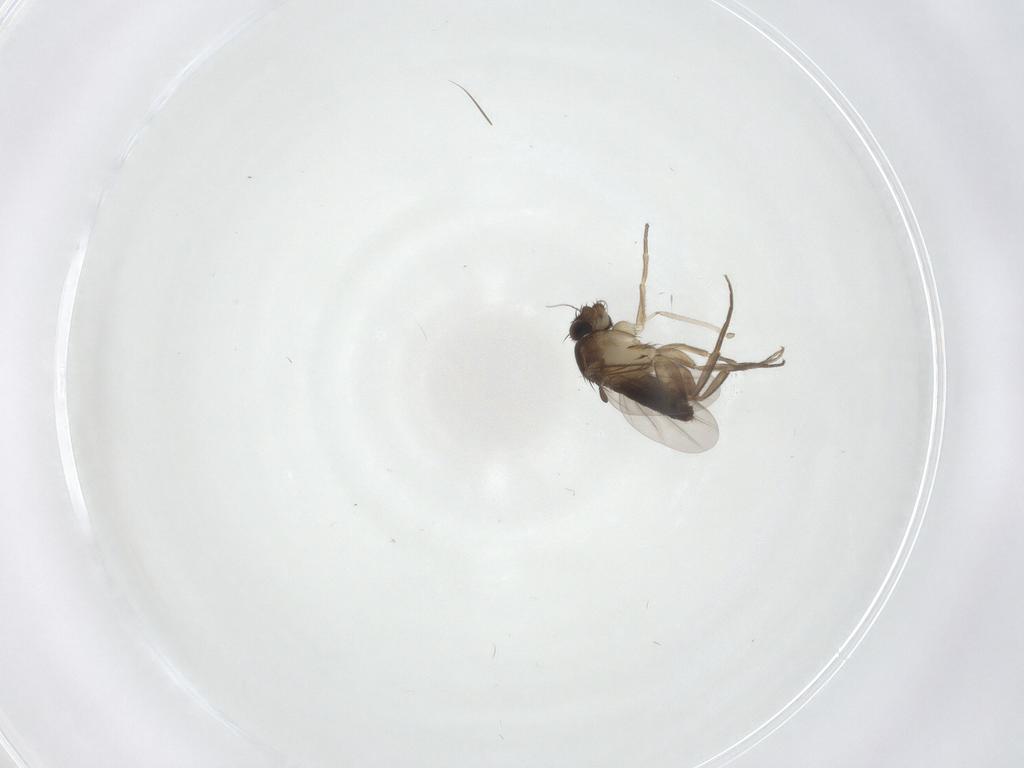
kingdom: Animalia
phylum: Arthropoda
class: Insecta
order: Diptera
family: Phoridae
